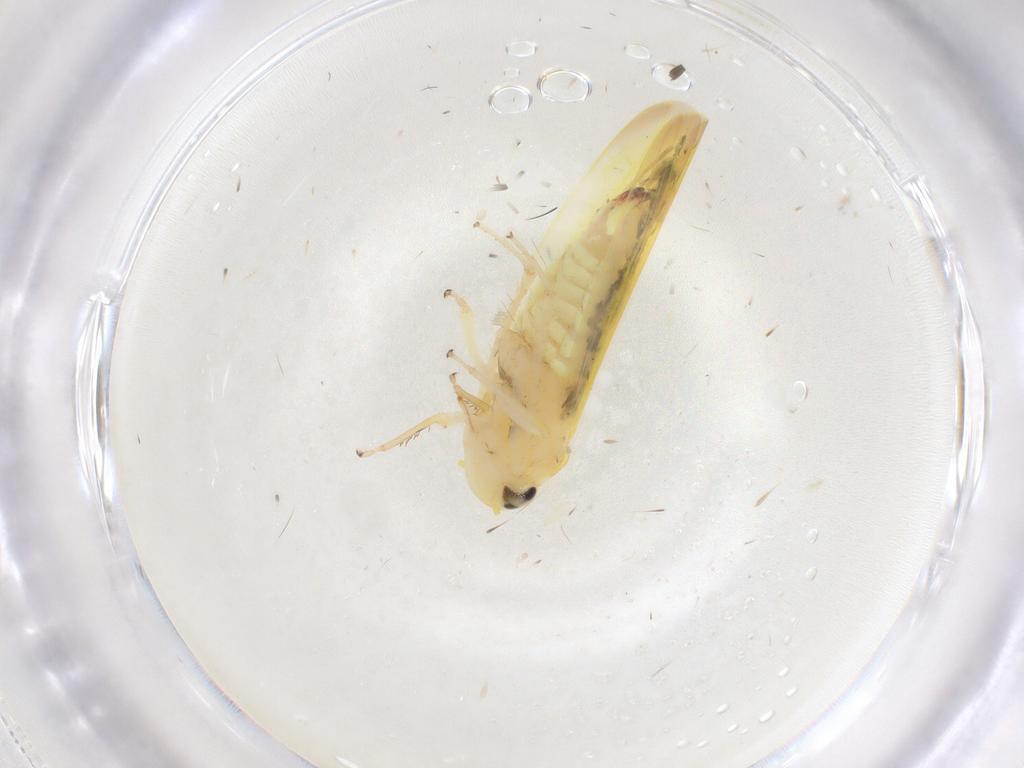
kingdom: Animalia
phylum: Arthropoda
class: Insecta
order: Hemiptera
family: Cicadellidae
